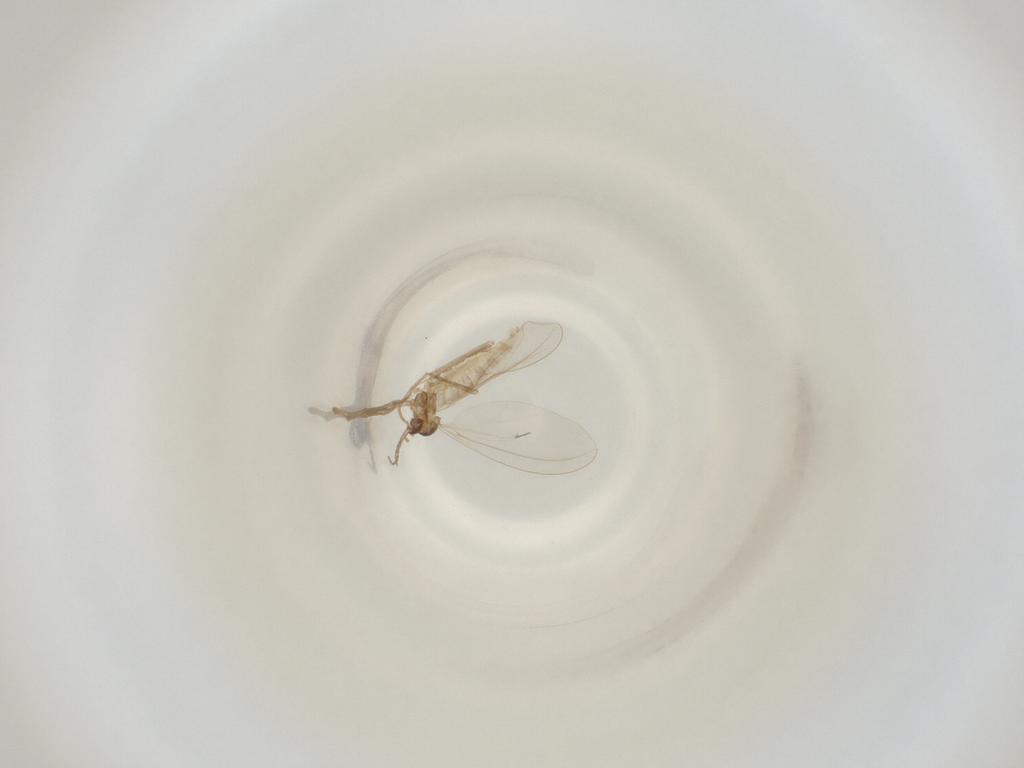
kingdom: Animalia
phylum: Arthropoda
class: Insecta
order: Diptera
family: Cecidomyiidae
